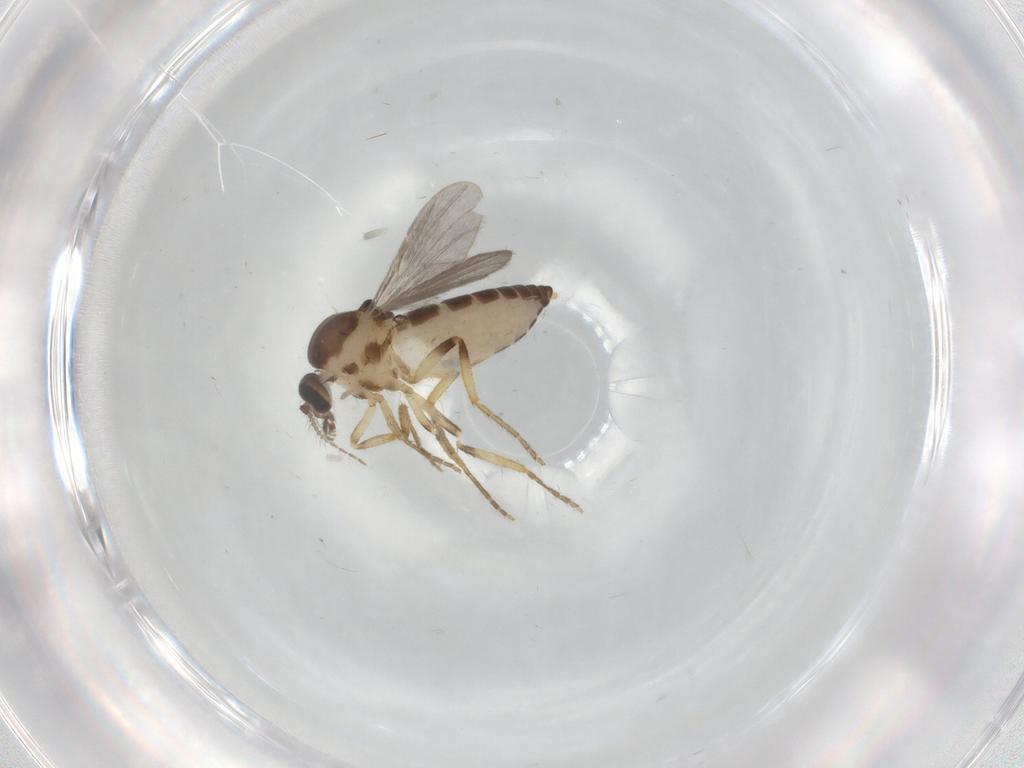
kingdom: Animalia
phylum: Arthropoda
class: Insecta
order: Diptera
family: Ceratopogonidae
